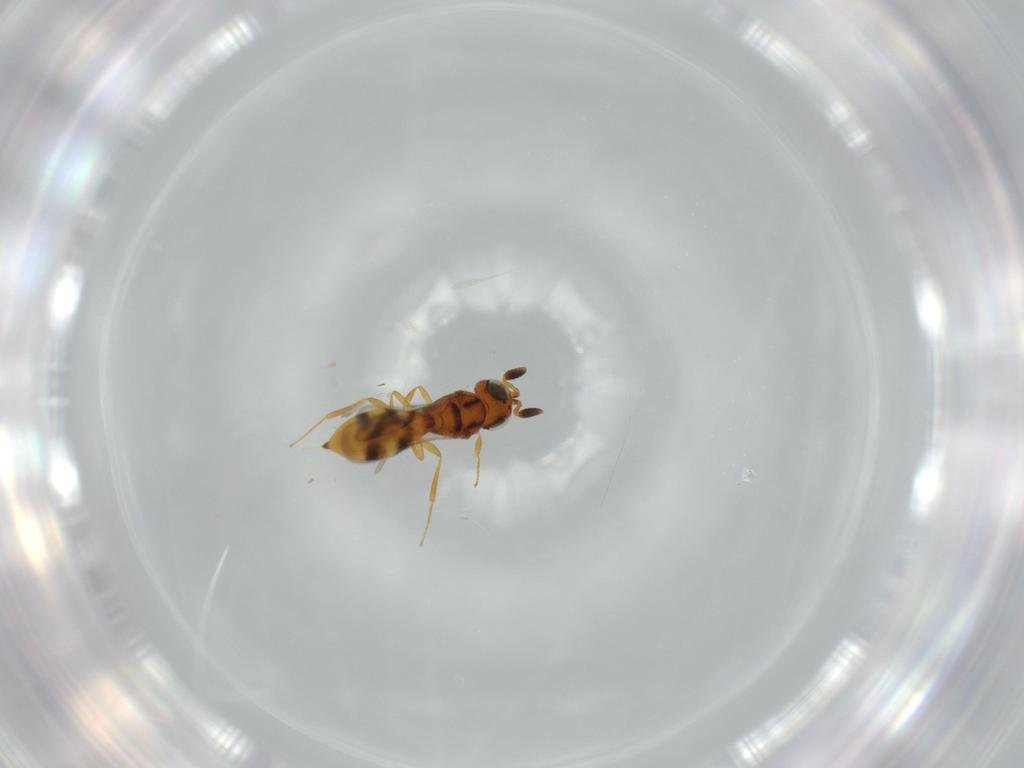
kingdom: Animalia
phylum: Arthropoda
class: Insecta
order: Hymenoptera
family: Scelionidae
